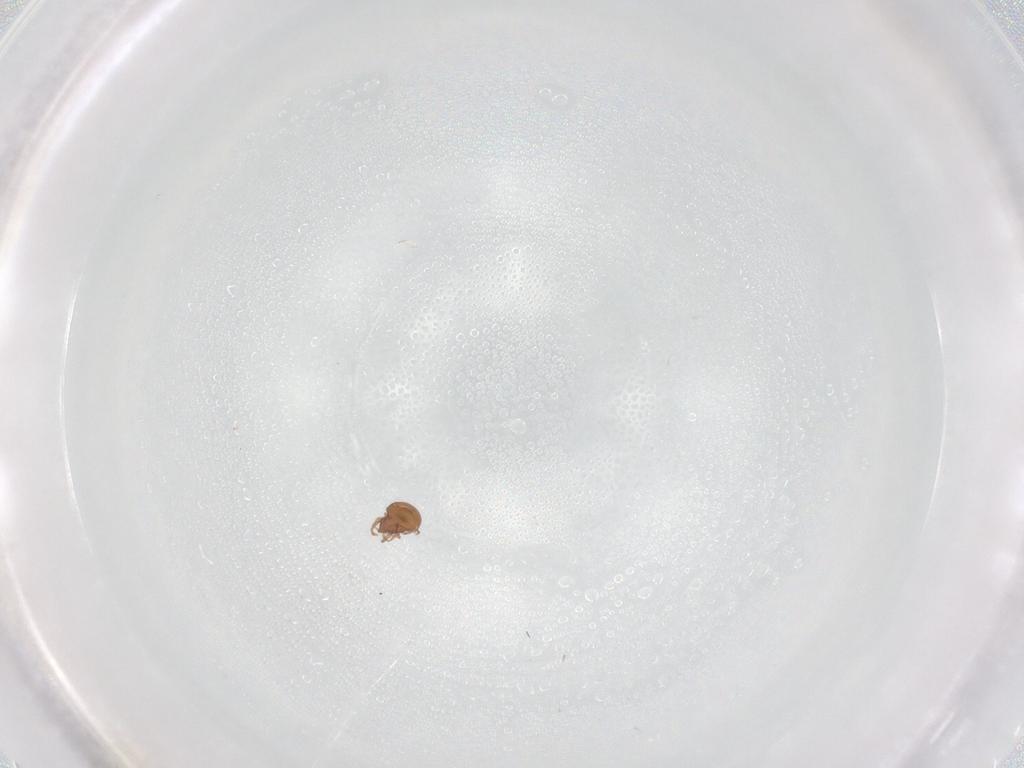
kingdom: Animalia
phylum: Arthropoda
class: Arachnida
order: Sarcoptiformes
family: Scheloribatidae
